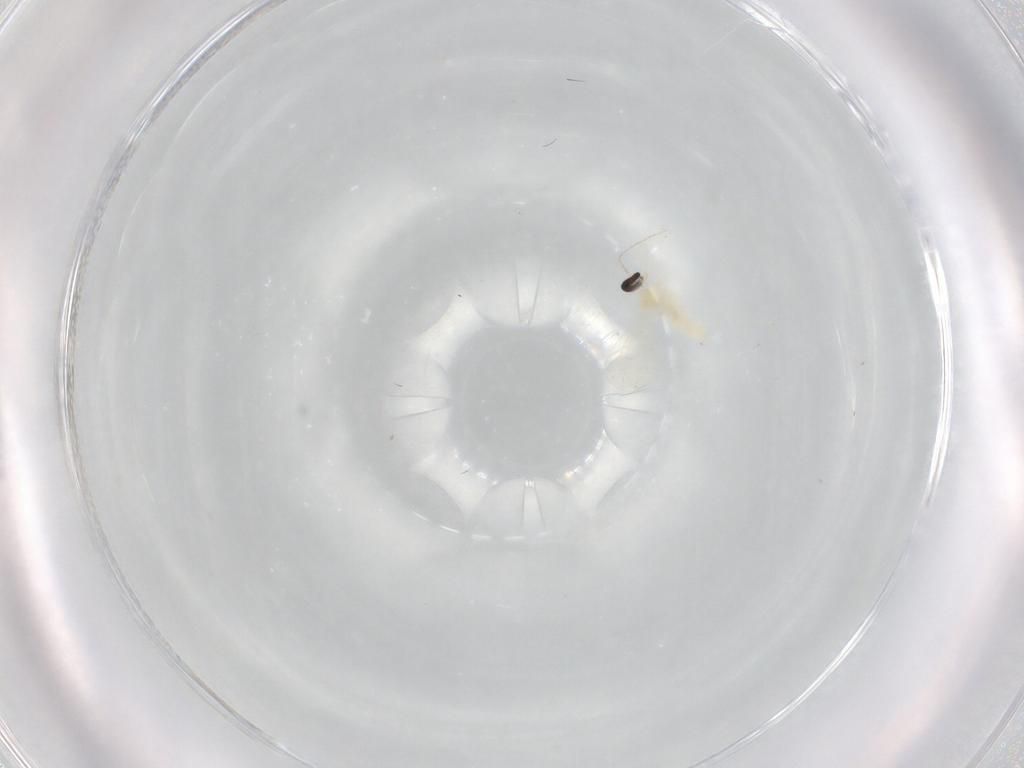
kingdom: Animalia
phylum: Arthropoda
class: Insecta
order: Diptera
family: Cecidomyiidae
